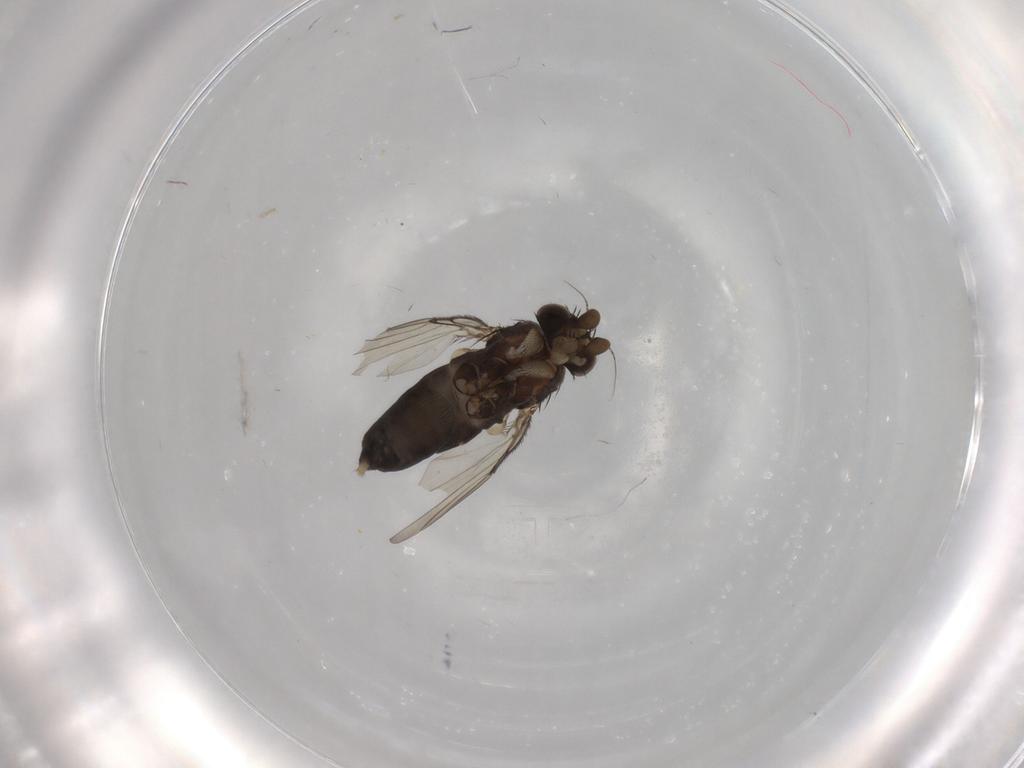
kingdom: Animalia
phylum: Arthropoda
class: Insecta
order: Diptera
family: Phoridae
